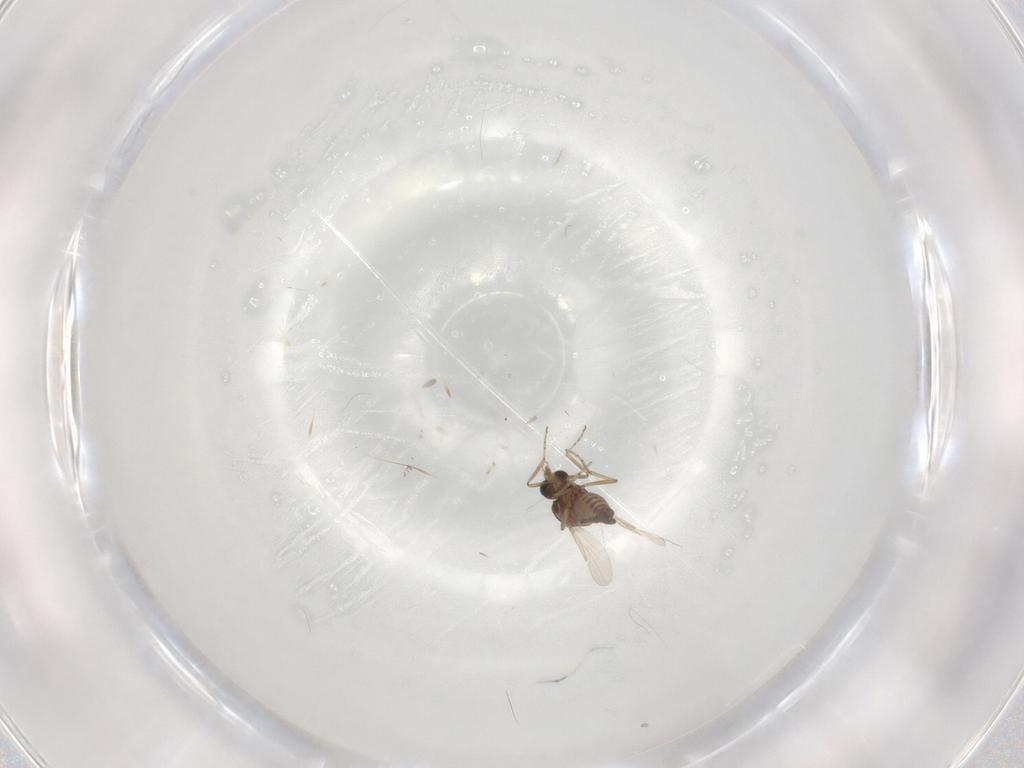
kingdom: Animalia
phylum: Arthropoda
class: Insecta
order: Diptera
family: Ceratopogonidae
